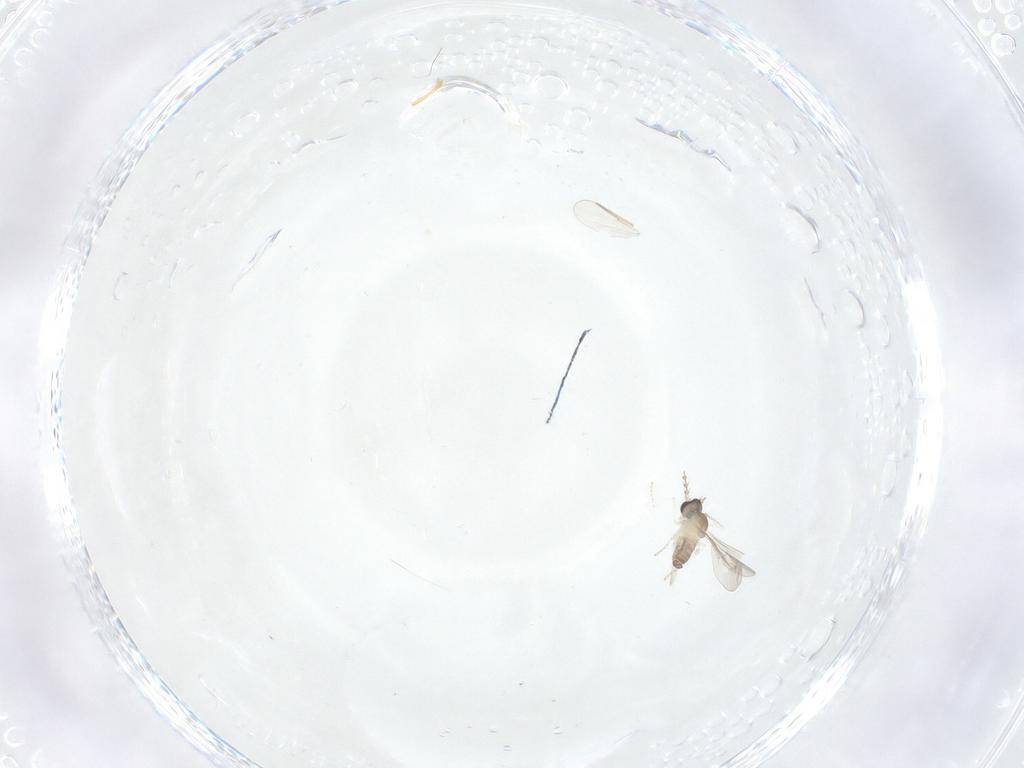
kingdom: Animalia
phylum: Arthropoda
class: Insecta
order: Diptera
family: Cecidomyiidae
